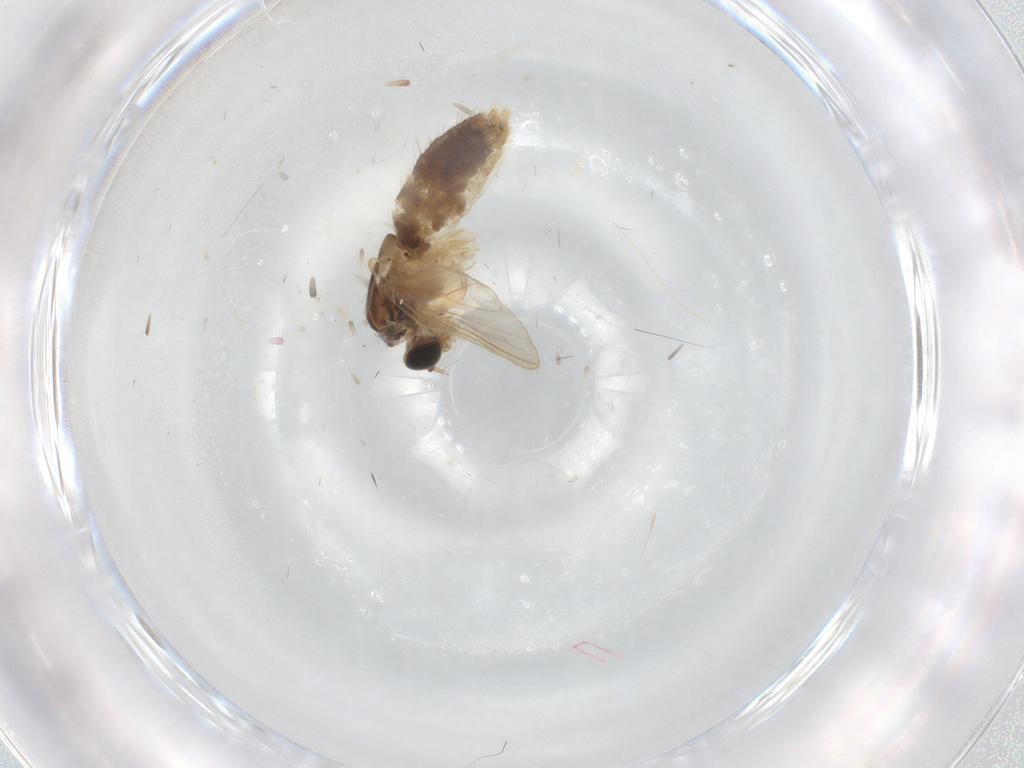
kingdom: Animalia
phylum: Arthropoda
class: Insecta
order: Diptera
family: Chironomidae
